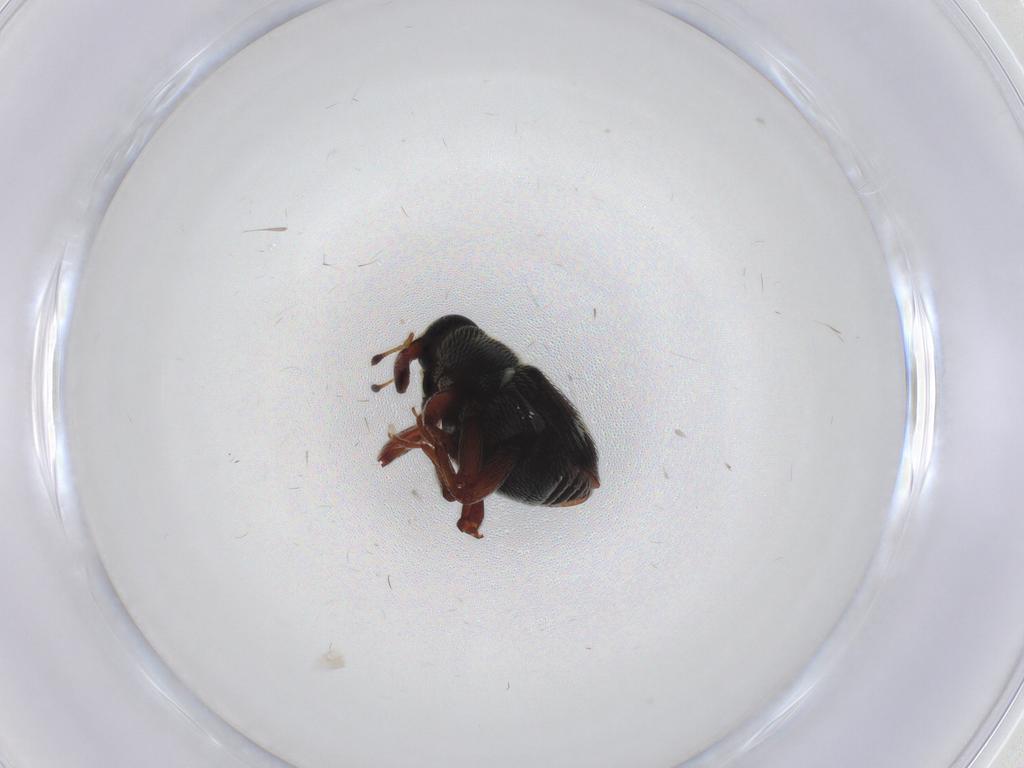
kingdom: Animalia
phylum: Arthropoda
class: Insecta
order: Coleoptera
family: Curculionidae
